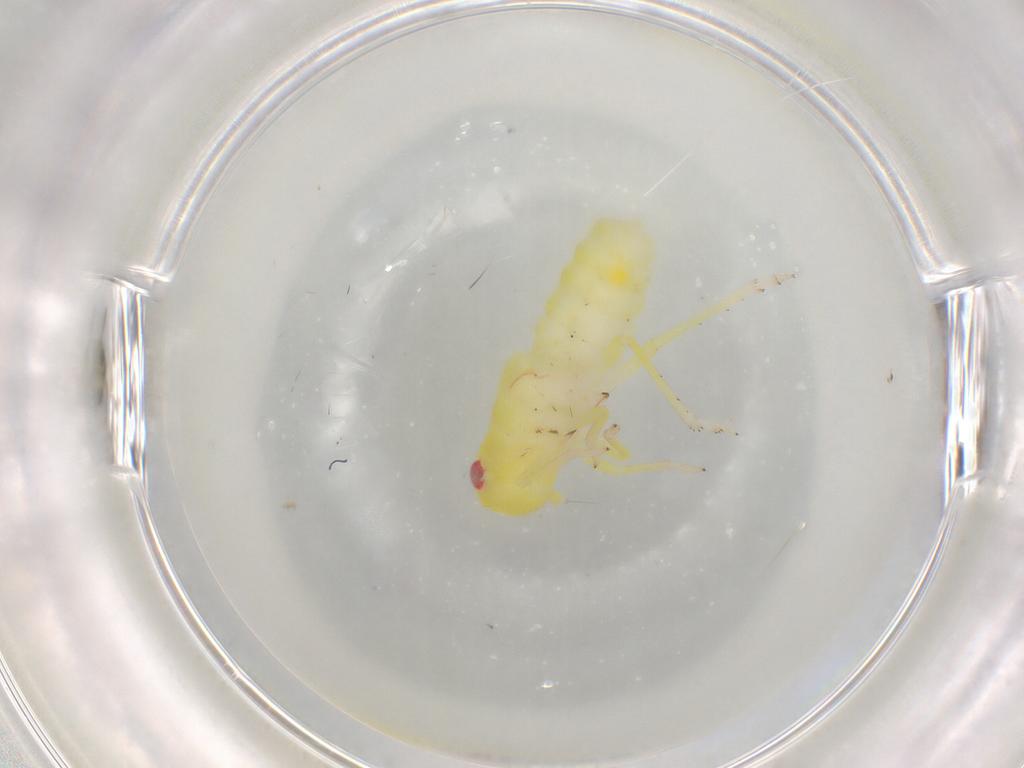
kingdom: Animalia
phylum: Arthropoda
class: Insecta
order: Hemiptera
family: Tropiduchidae
